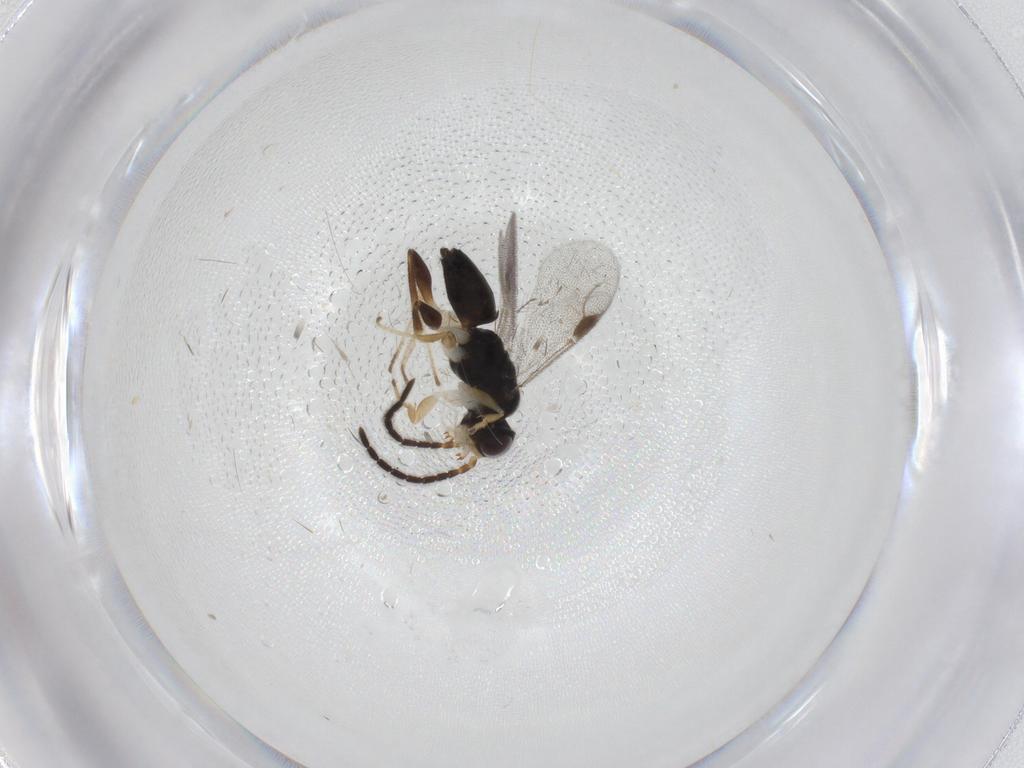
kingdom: Animalia
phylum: Arthropoda
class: Insecta
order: Hymenoptera
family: Dryinidae
